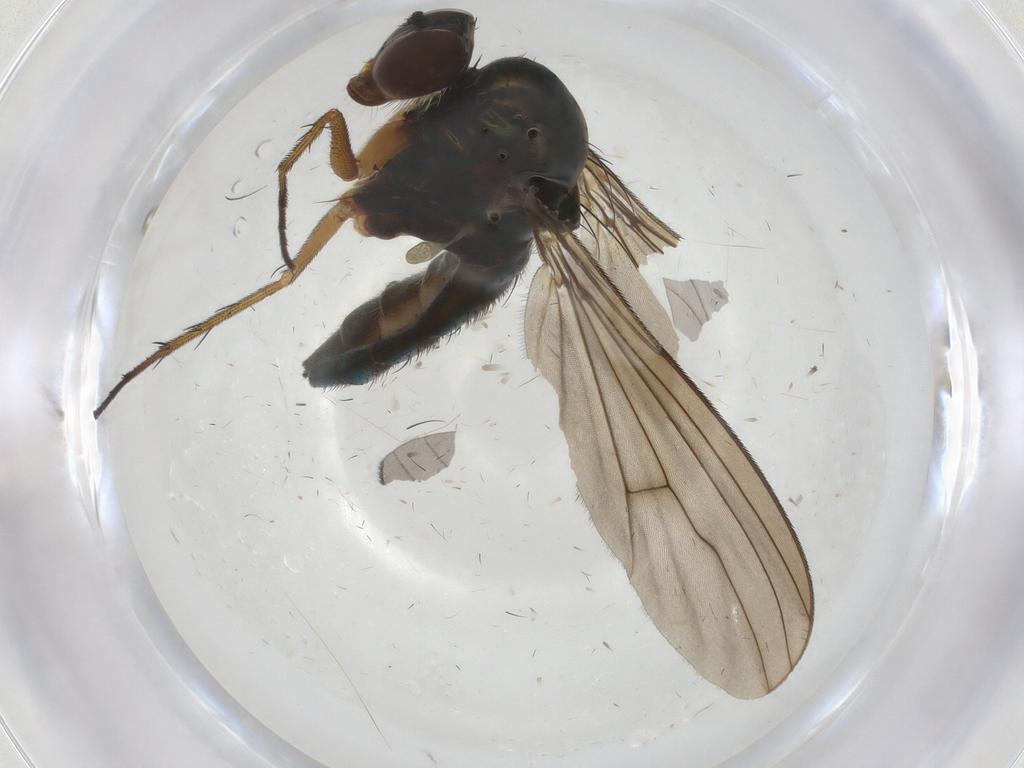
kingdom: Animalia
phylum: Arthropoda
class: Insecta
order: Diptera
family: Dolichopodidae
